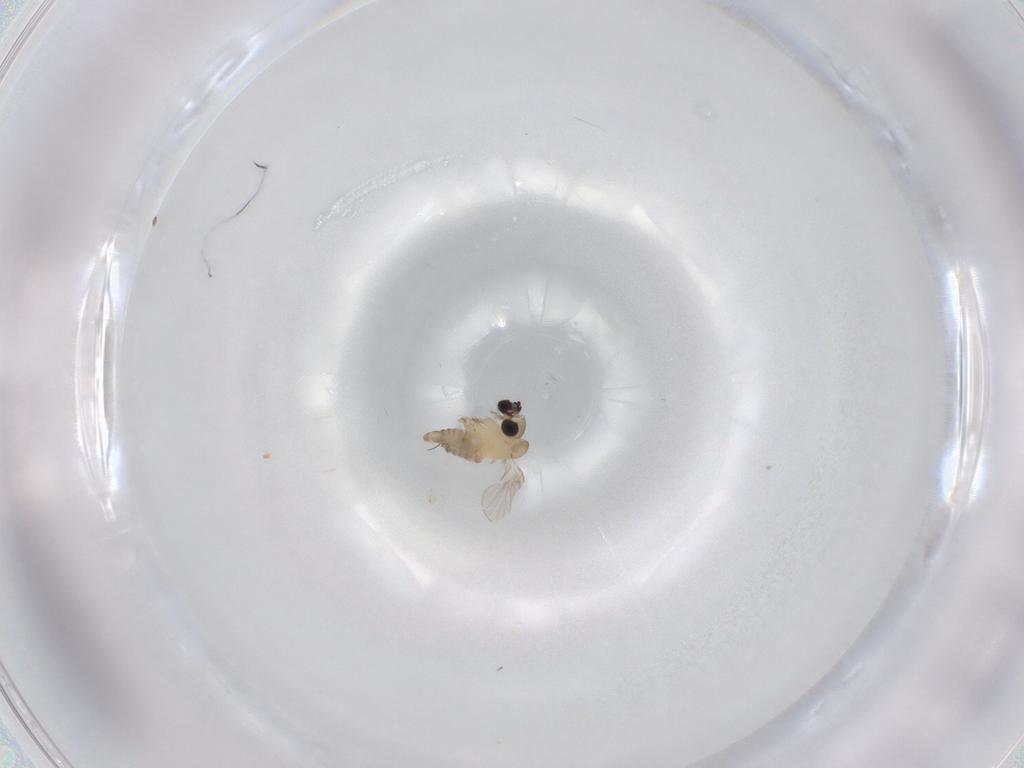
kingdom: Animalia
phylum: Arthropoda
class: Insecta
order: Diptera
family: Psychodidae
